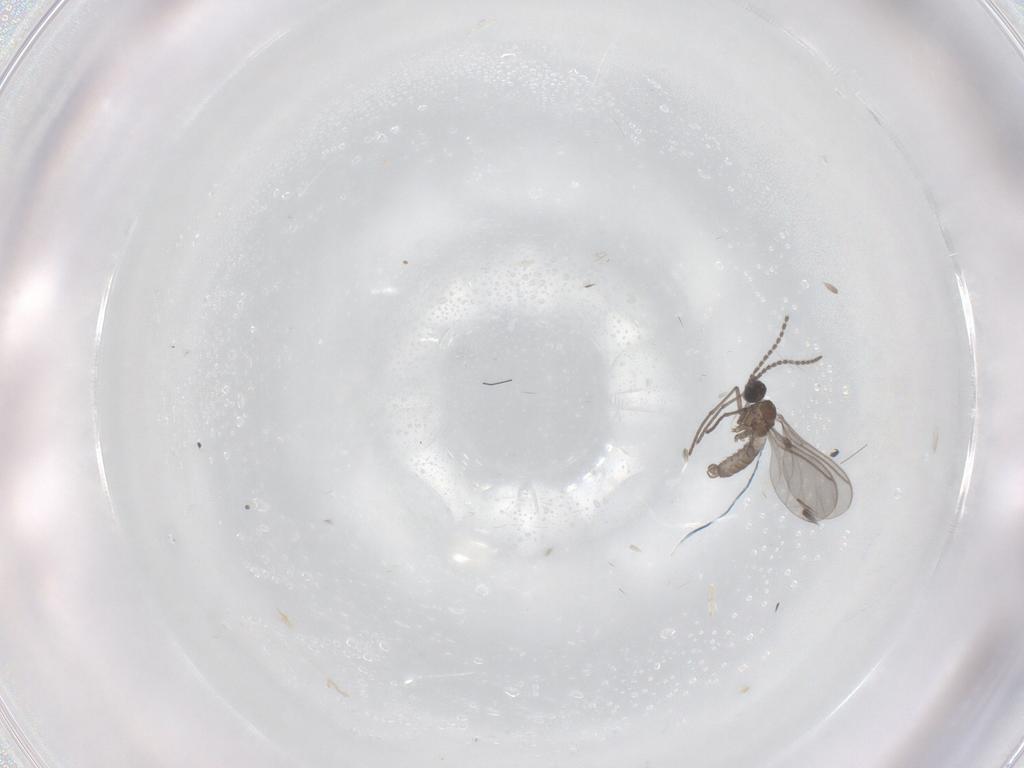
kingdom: Animalia
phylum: Arthropoda
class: Insecta
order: Diptera
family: Sciaridae
